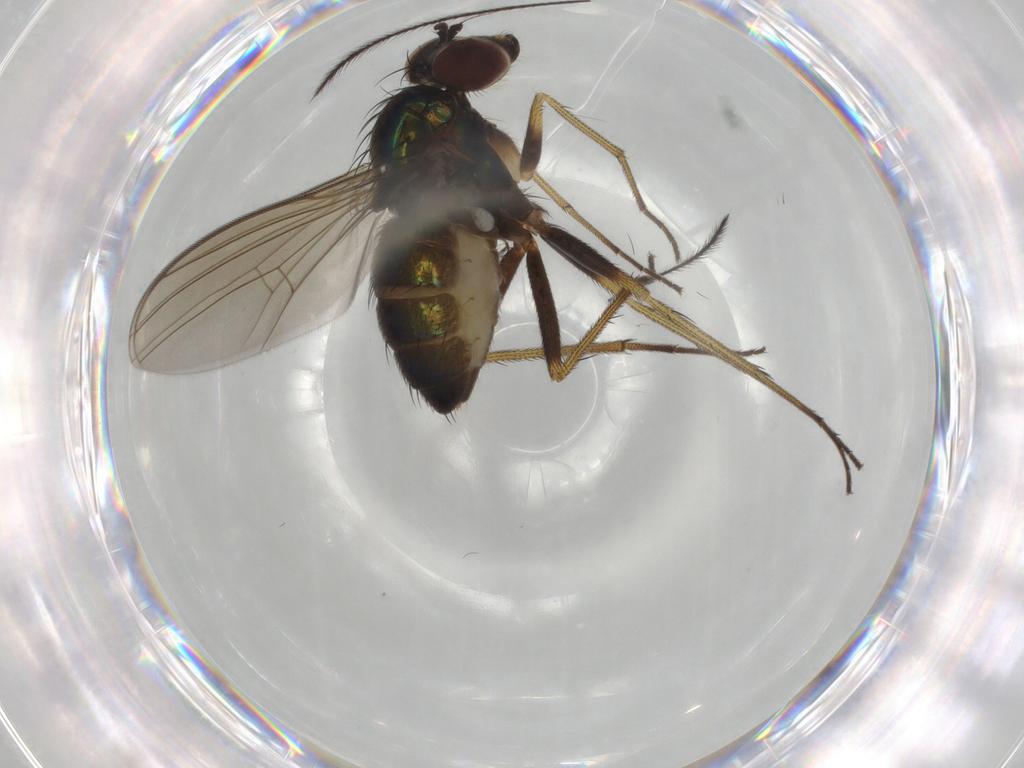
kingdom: Animalia
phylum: Arthropoda
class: Insecta
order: Diptera
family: Dolichopodidae
